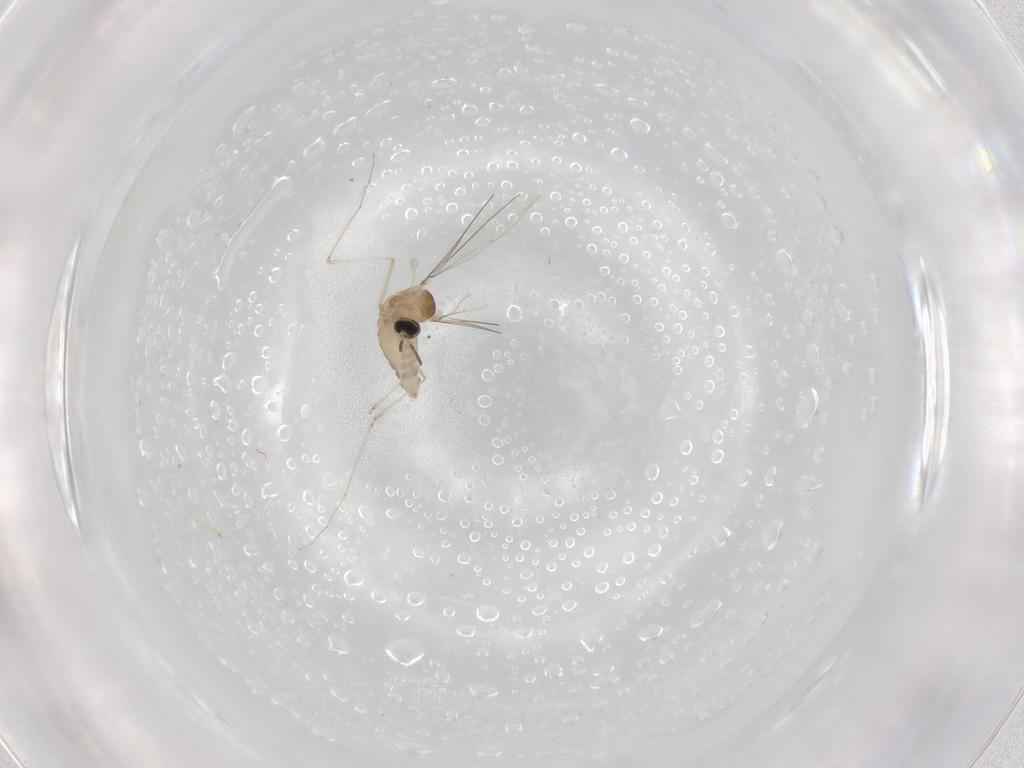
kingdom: Animalia
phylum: Arthropoda
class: Insecta
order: Diptera
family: Cecidomyiidae
